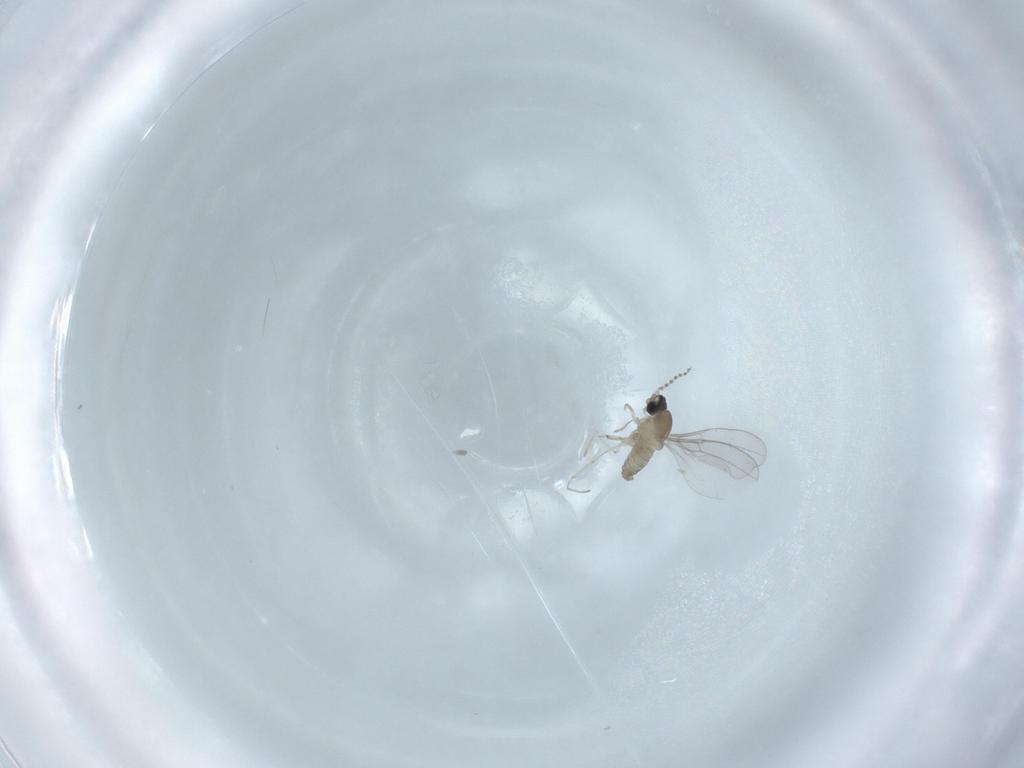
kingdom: Animalia
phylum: Arthropoda
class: Insecta
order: Diptera
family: Cecidomyiidae
